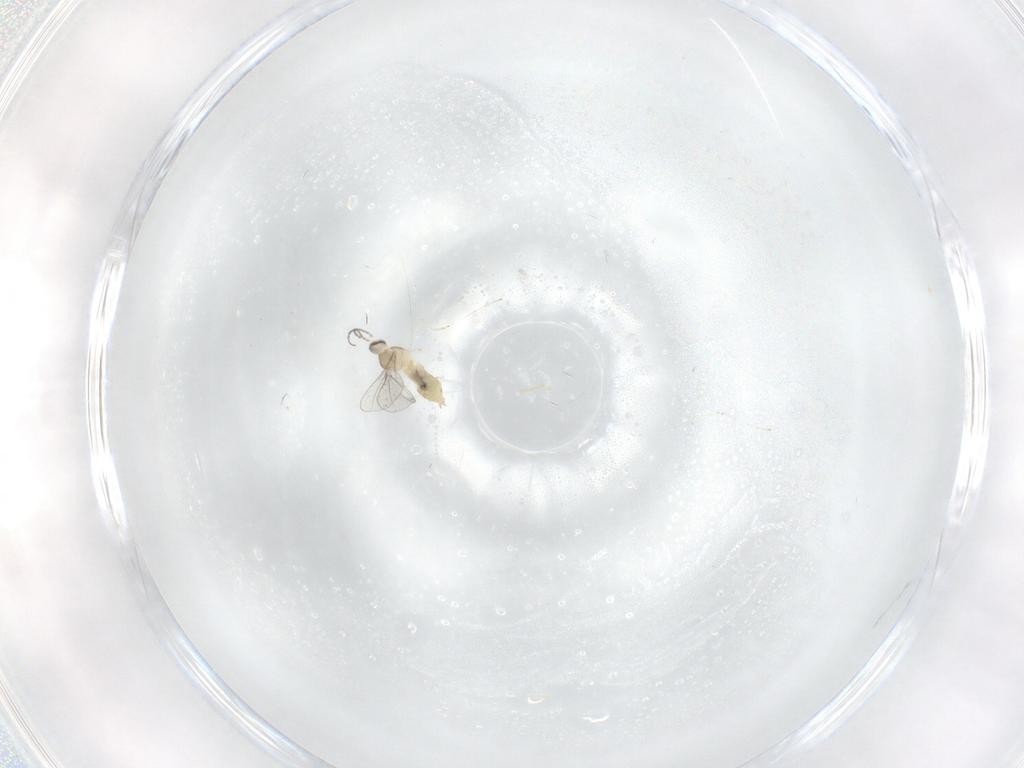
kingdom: Animalia
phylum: Arthropoda
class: Insecta
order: Diptera
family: Cecidomyiidae
